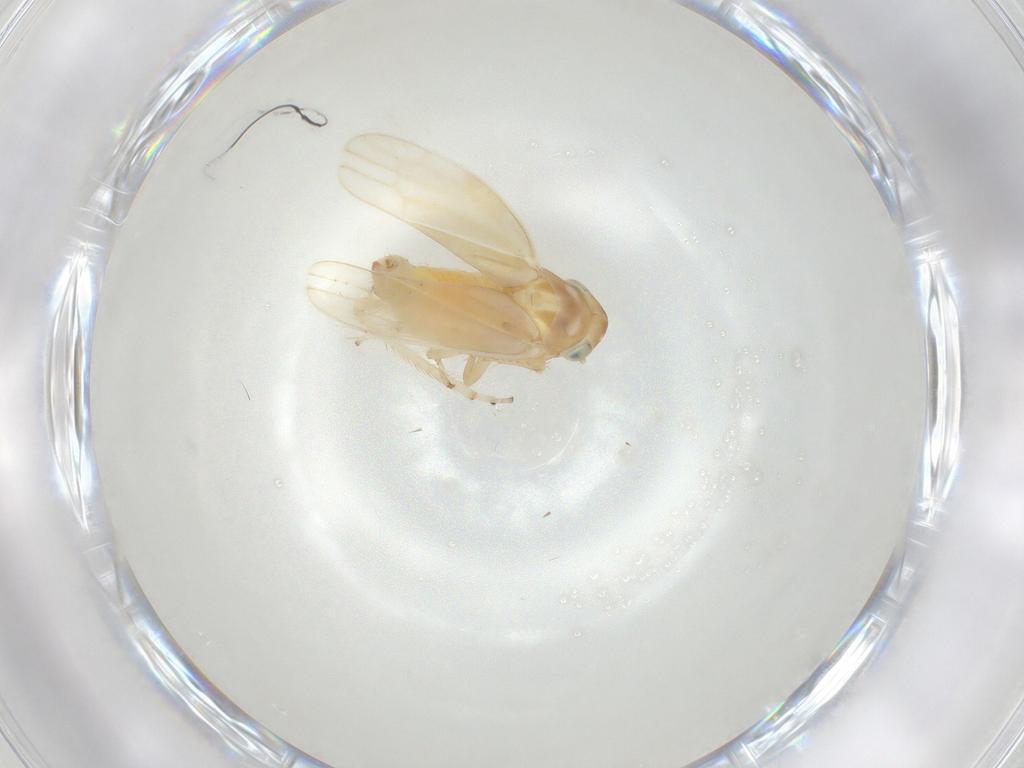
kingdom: Animalia
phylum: Arthropoda
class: Insecta
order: Hemiptera
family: Cicadellidae
